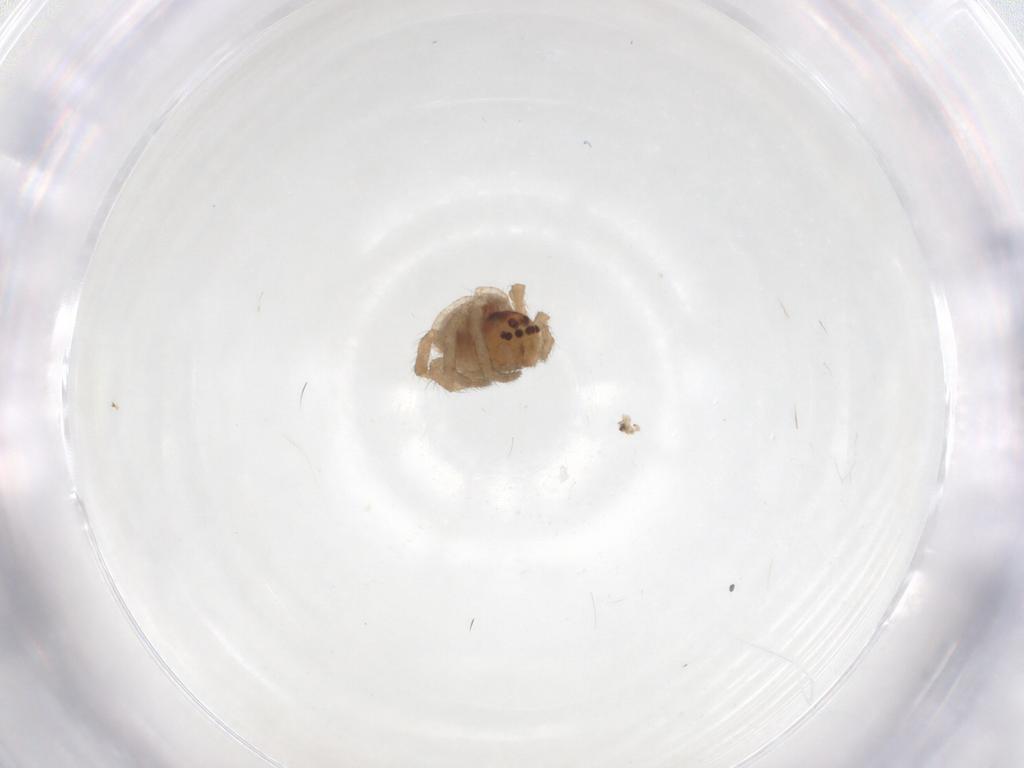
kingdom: Animalia
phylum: Arthropoda
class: Arachnida
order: Araneae
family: Araneidae
